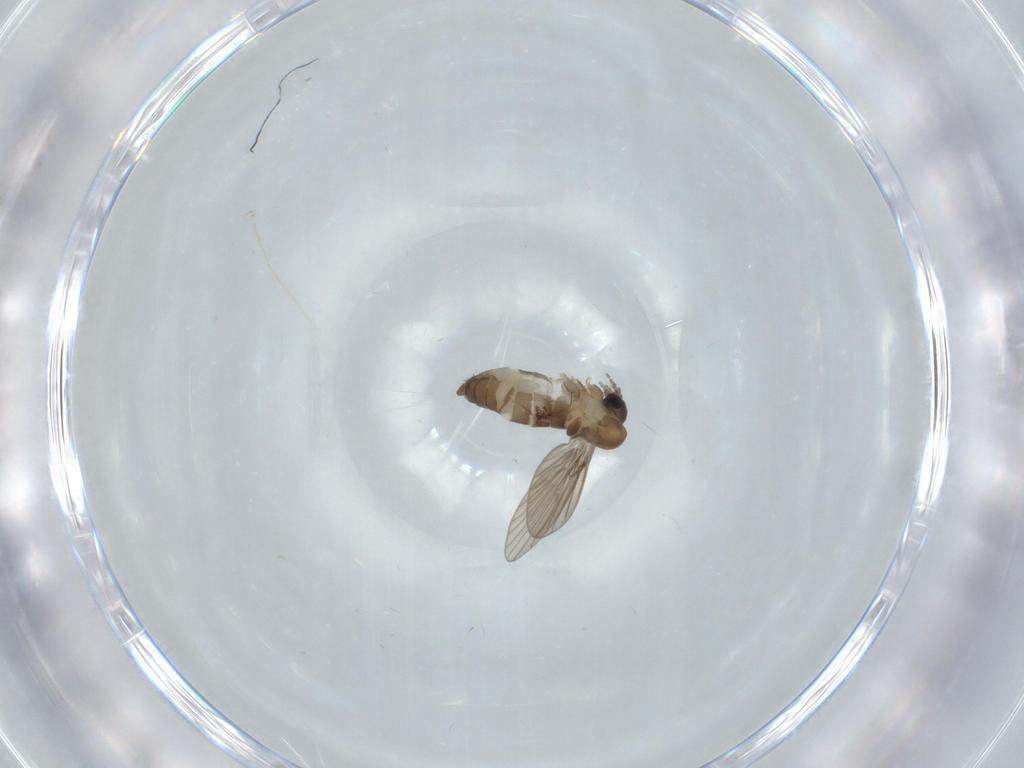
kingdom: Animalia
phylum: Arthropoda
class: Insecta
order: Diptera
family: Psychodidae
